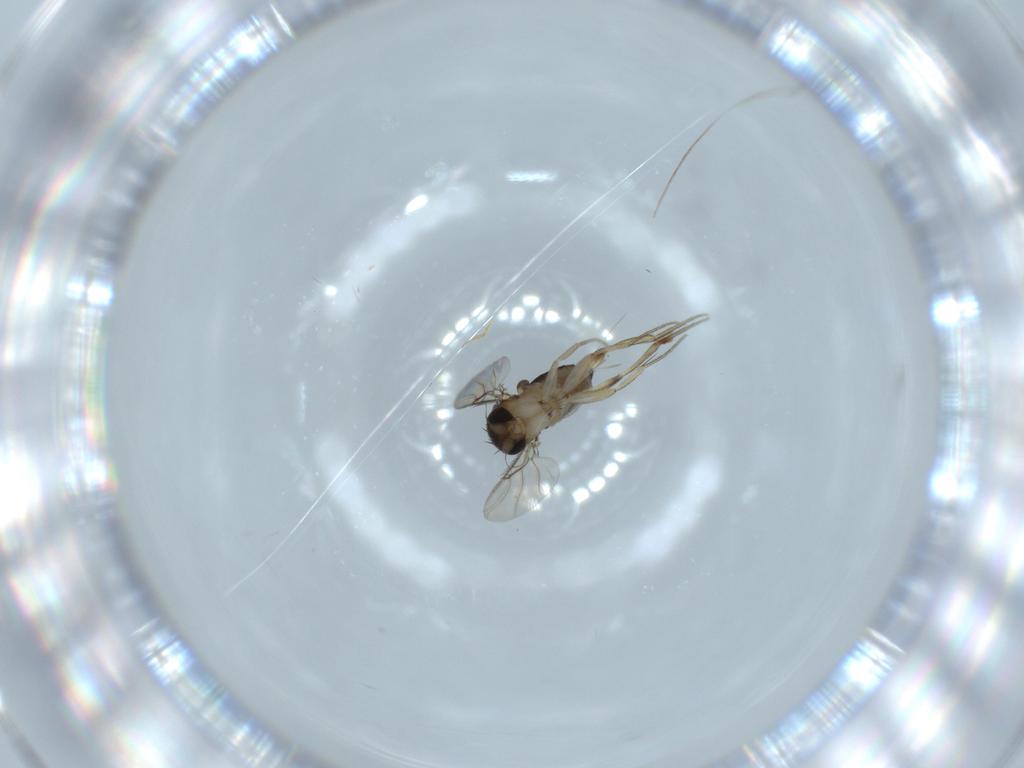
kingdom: Animalia
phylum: Arthropoda
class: Insecta
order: Diptera
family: Phoridae
